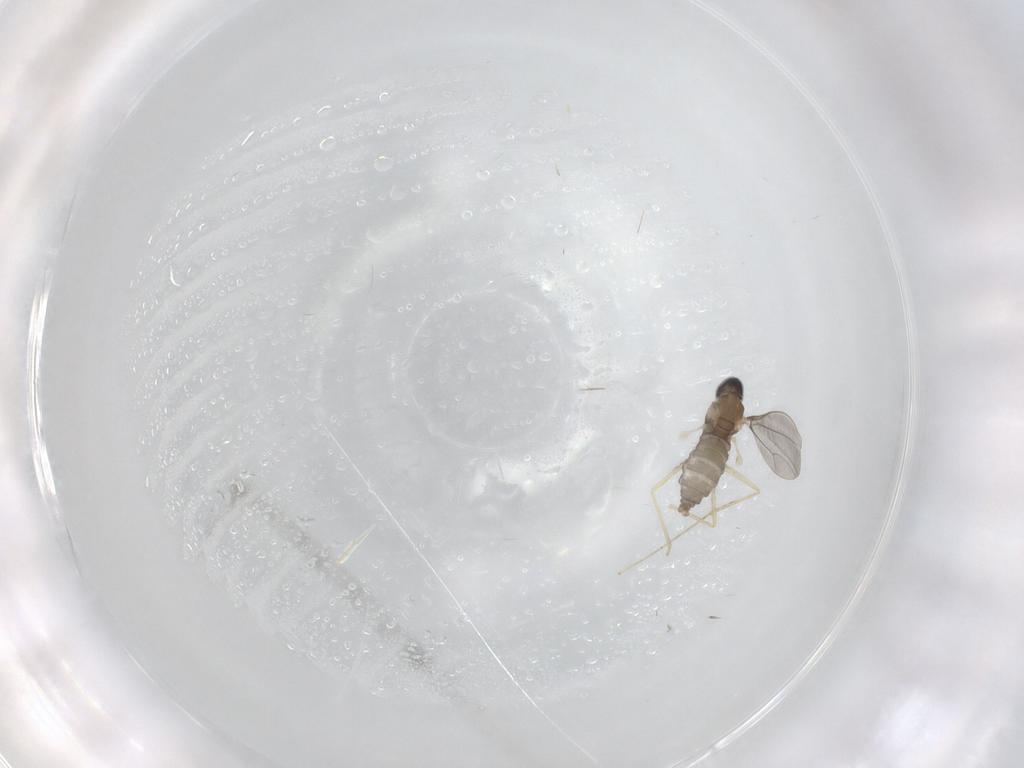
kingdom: Animalia
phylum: Arthropoda
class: Insecta
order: Diptera
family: Cecidomyiidae
